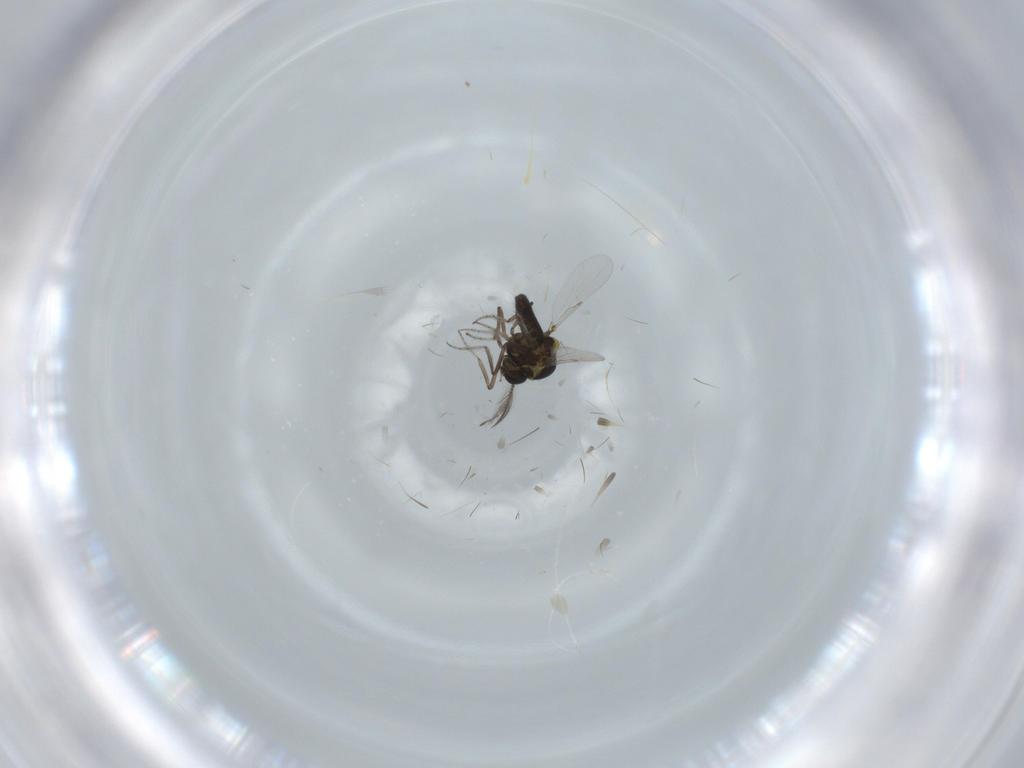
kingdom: Animalia
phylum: Arthropoda
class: Insecta
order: Diptera
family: Ceratopogonidae
